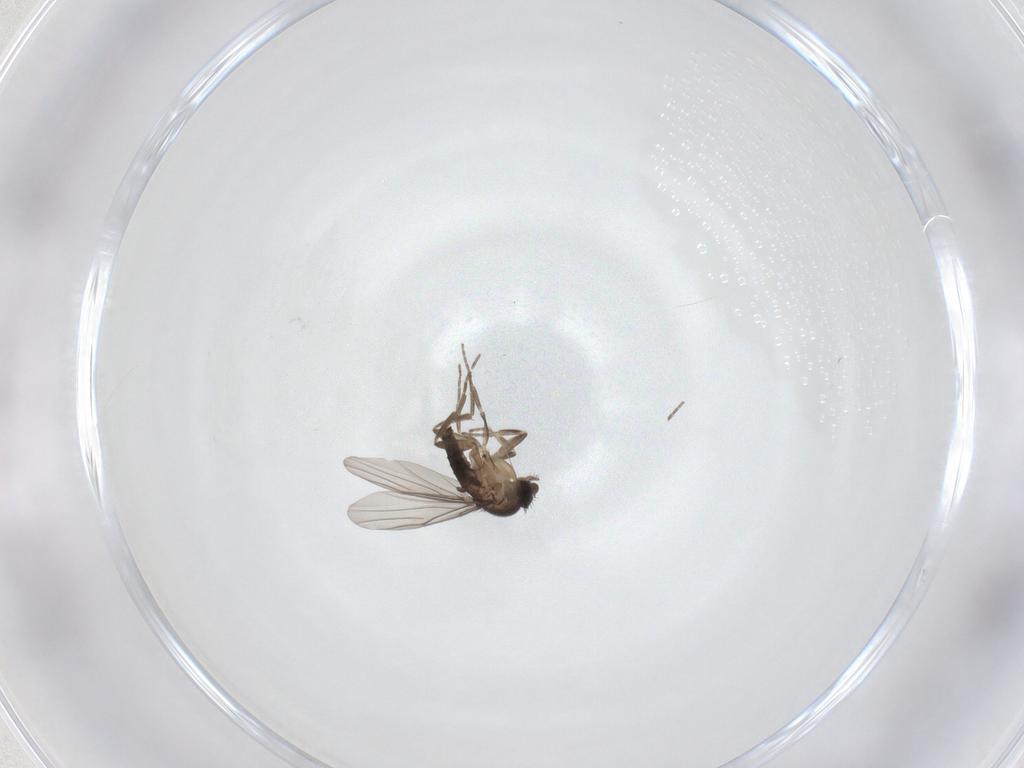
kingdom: Animalia
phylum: Arthropoda
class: Insecta
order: Diptera
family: Phoridae
